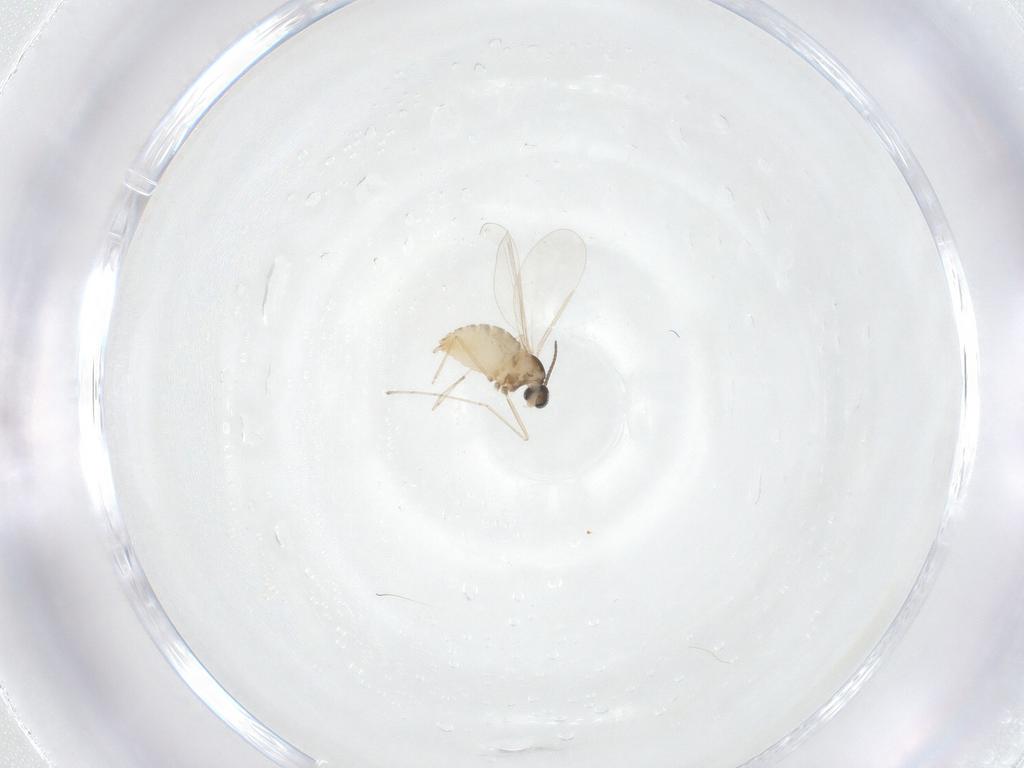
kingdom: Animalia
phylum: Arthropoda
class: Insecta
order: Diptera
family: Cecidomyiidae
